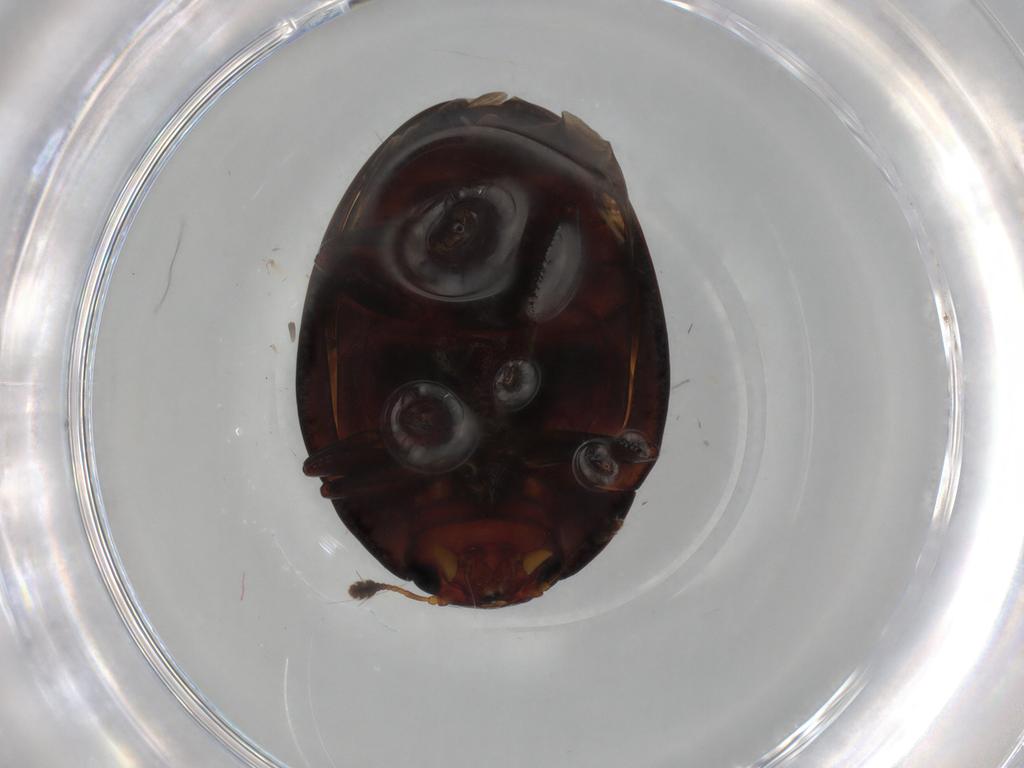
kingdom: Animalia
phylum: Arthropoda
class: Insecta
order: Coleoptera
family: Erotylidae
